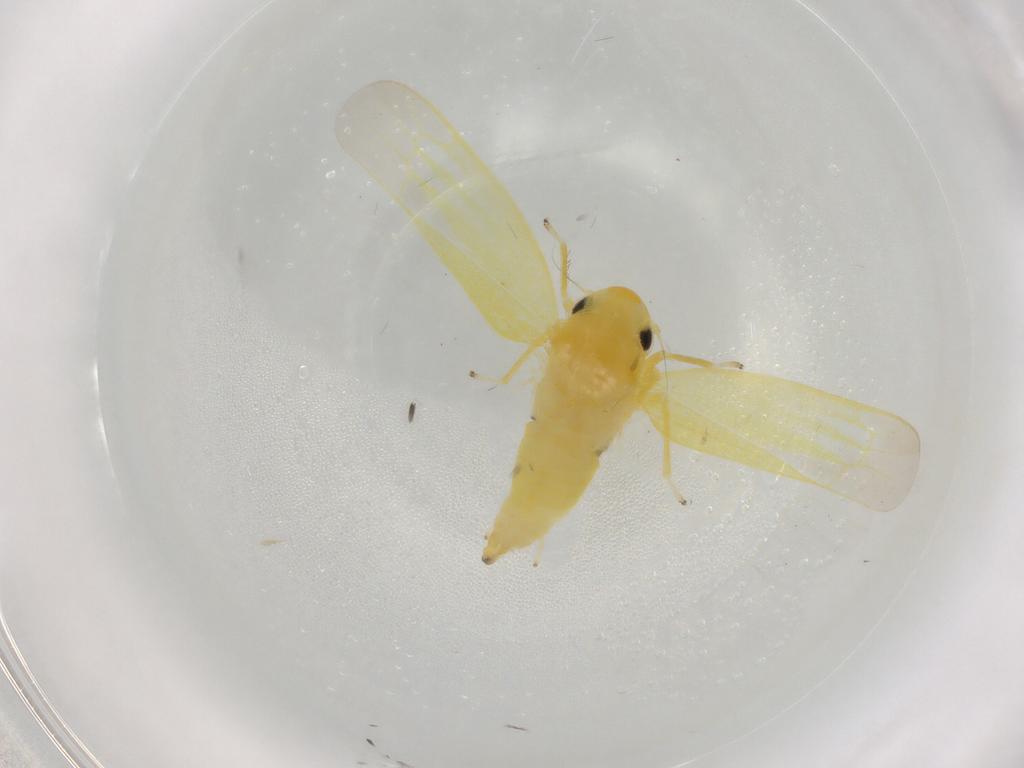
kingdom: Animalia
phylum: Arthropoda
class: Insecta
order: Hemiptera
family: Cicadellidae
